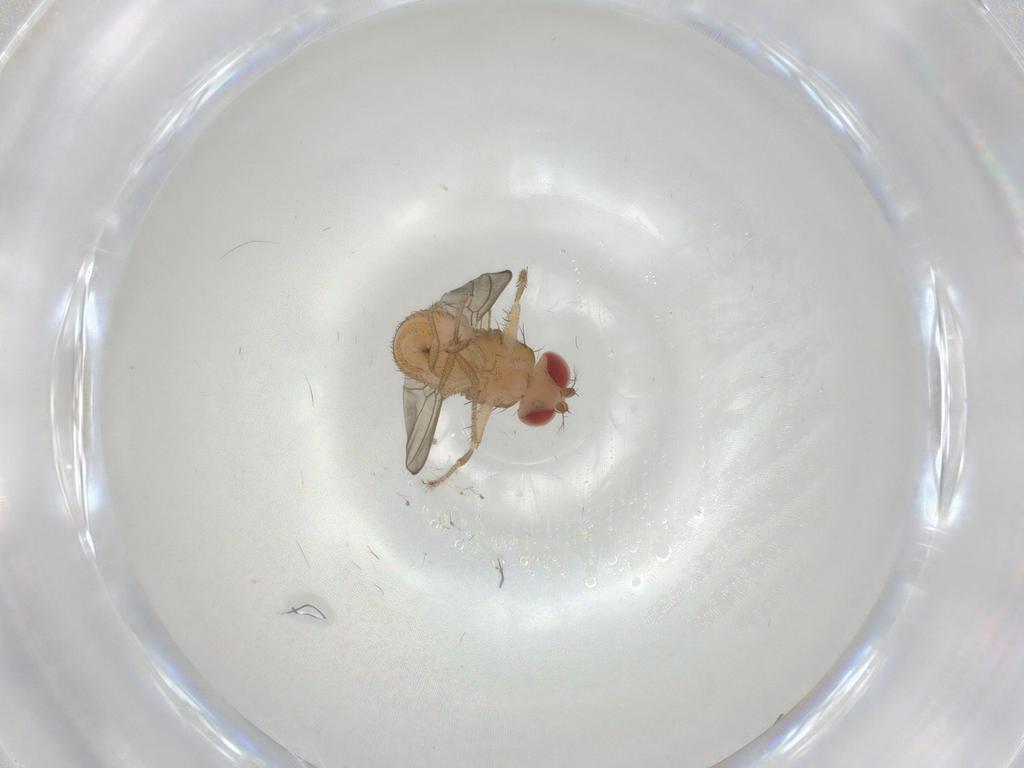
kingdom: Animalia
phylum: Arthropoda
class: Insecta
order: Diptera
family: Drosophilidae
